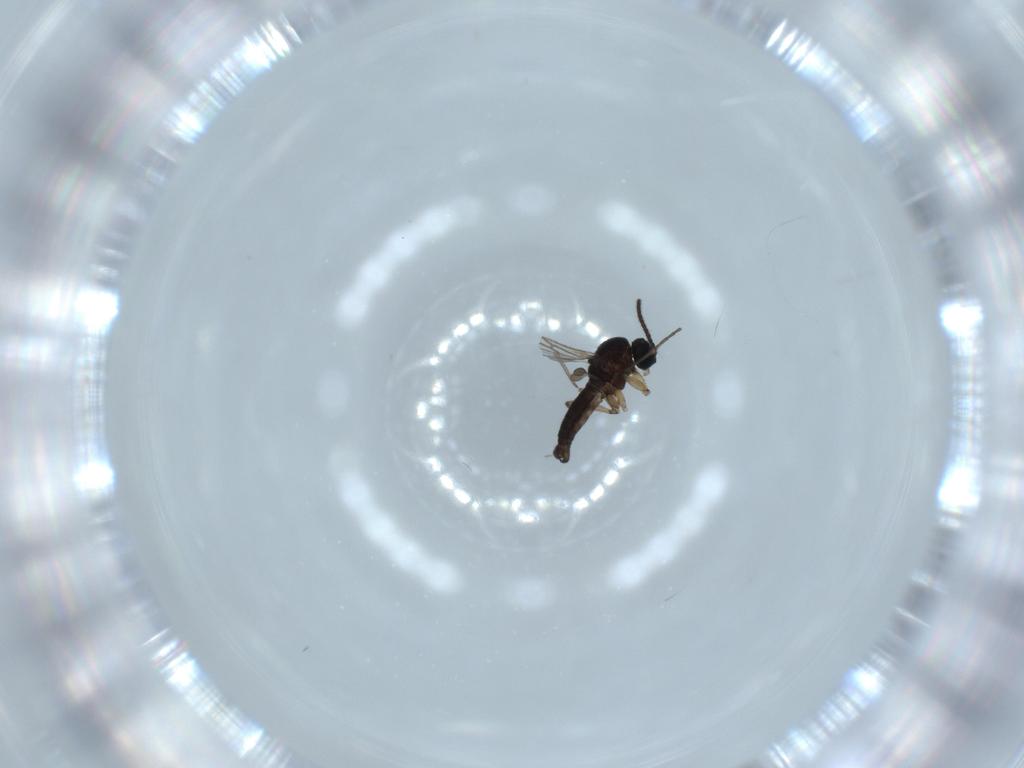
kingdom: Animalia
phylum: Arthropoda
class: Insecta
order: Diptera
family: Sciaridae
